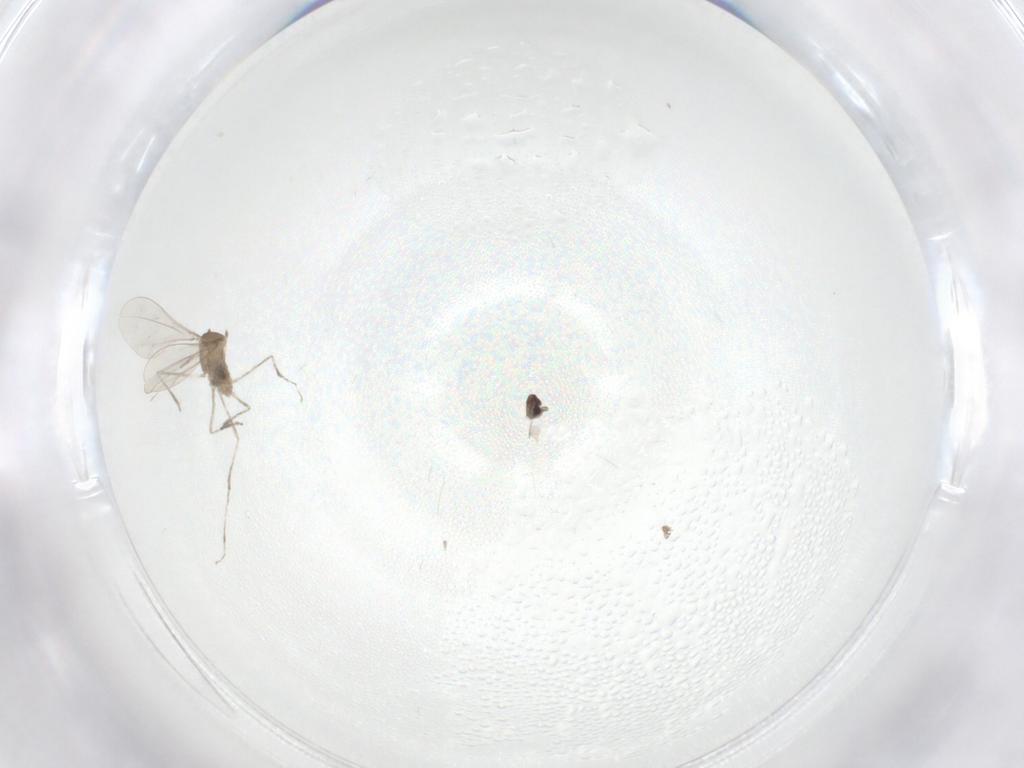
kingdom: Animalia
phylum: Arthropoda
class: Insecta
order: Diptera
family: Cecidomyiidae
